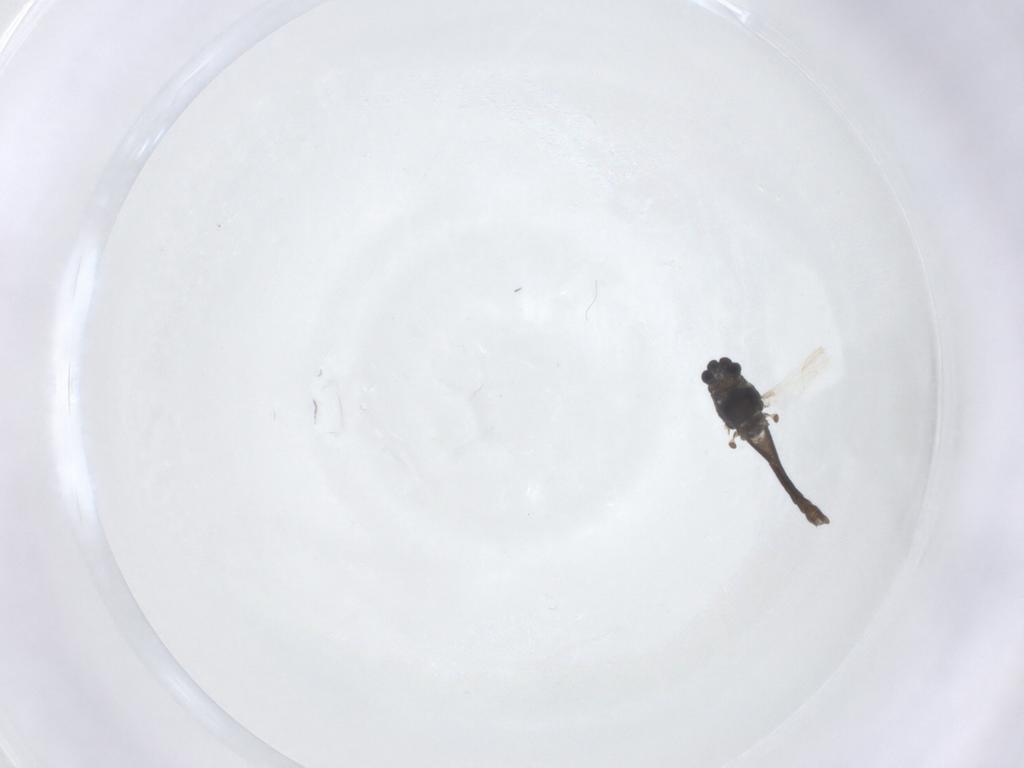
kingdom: Animalia
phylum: Arthropoda
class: Insecta
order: Diptera
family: Chironomidae
